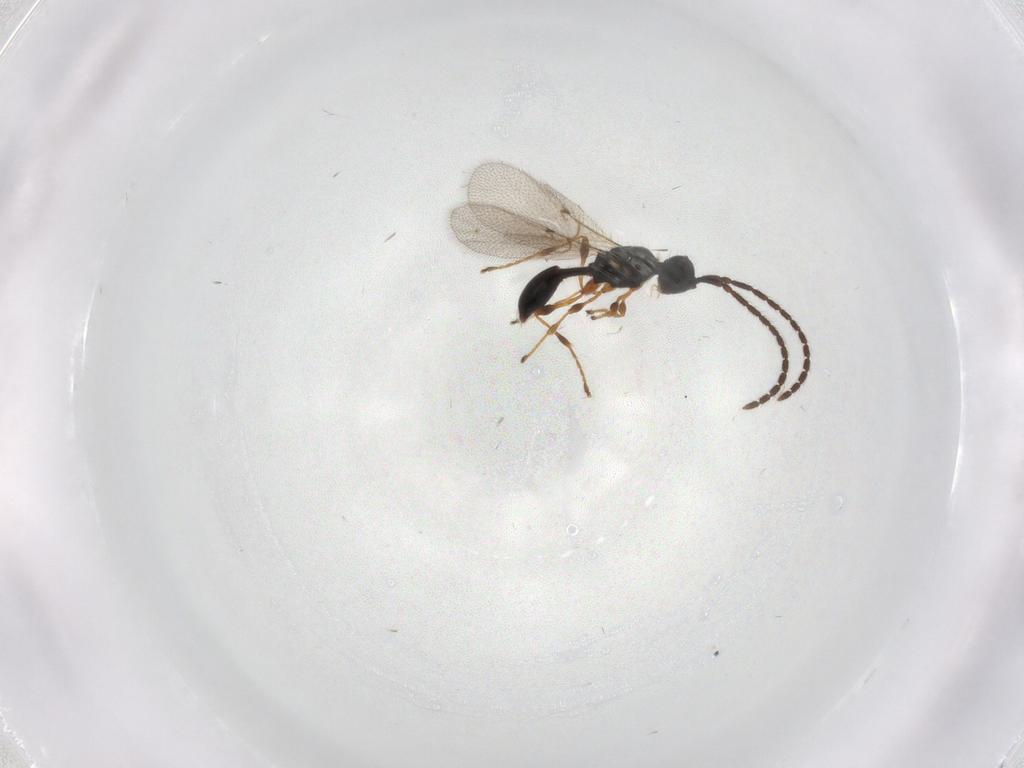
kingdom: Animalia
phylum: Arthropoda
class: Insecta
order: Hymenoptera
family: Diapriidae
